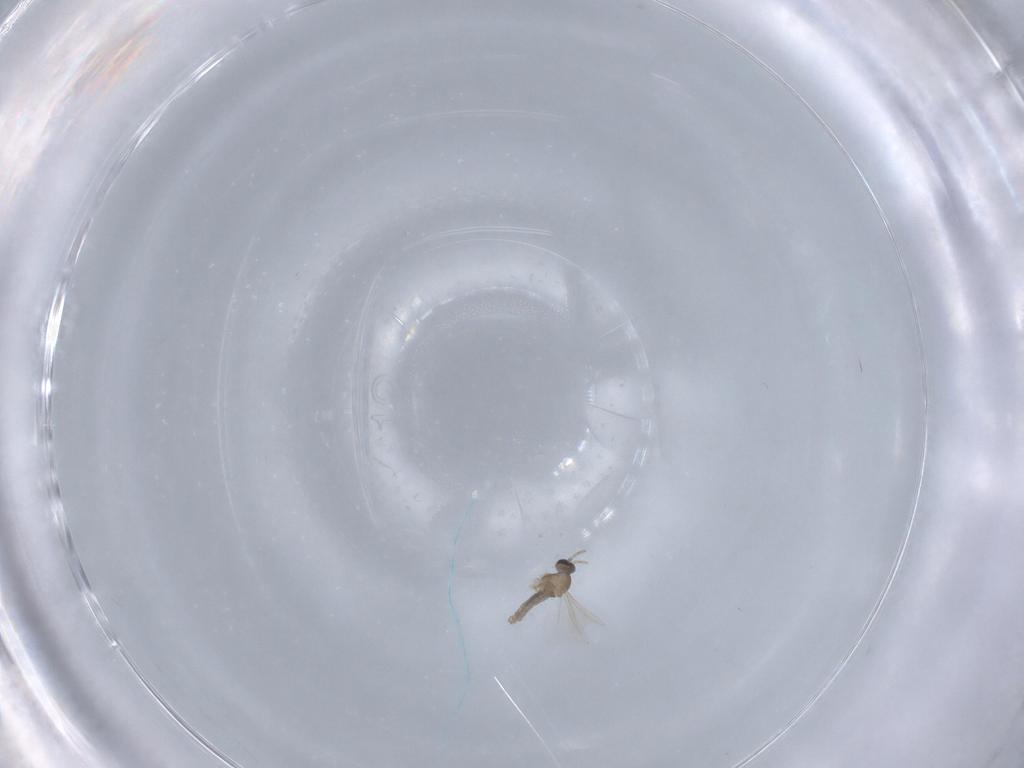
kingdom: Animalia
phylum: Arthropoda
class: Insecta
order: Diptera
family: Cecidomyiidae
